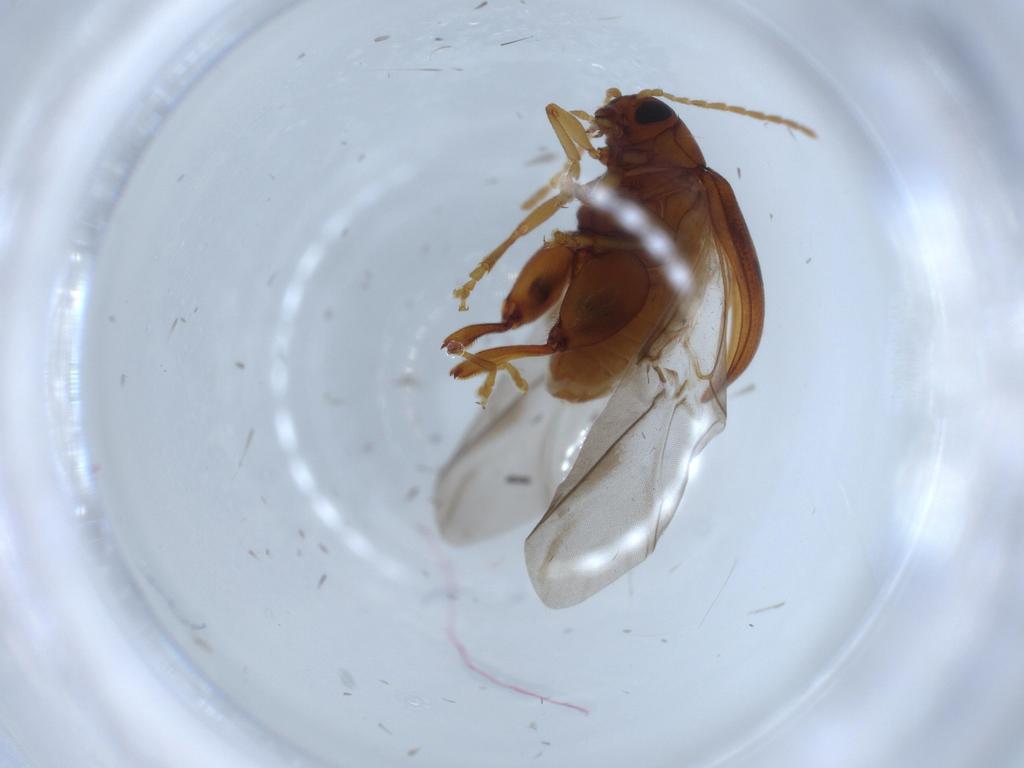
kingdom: Animalia
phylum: Arthropoda
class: Insecta
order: Coleoptera
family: Chrysomelidae
